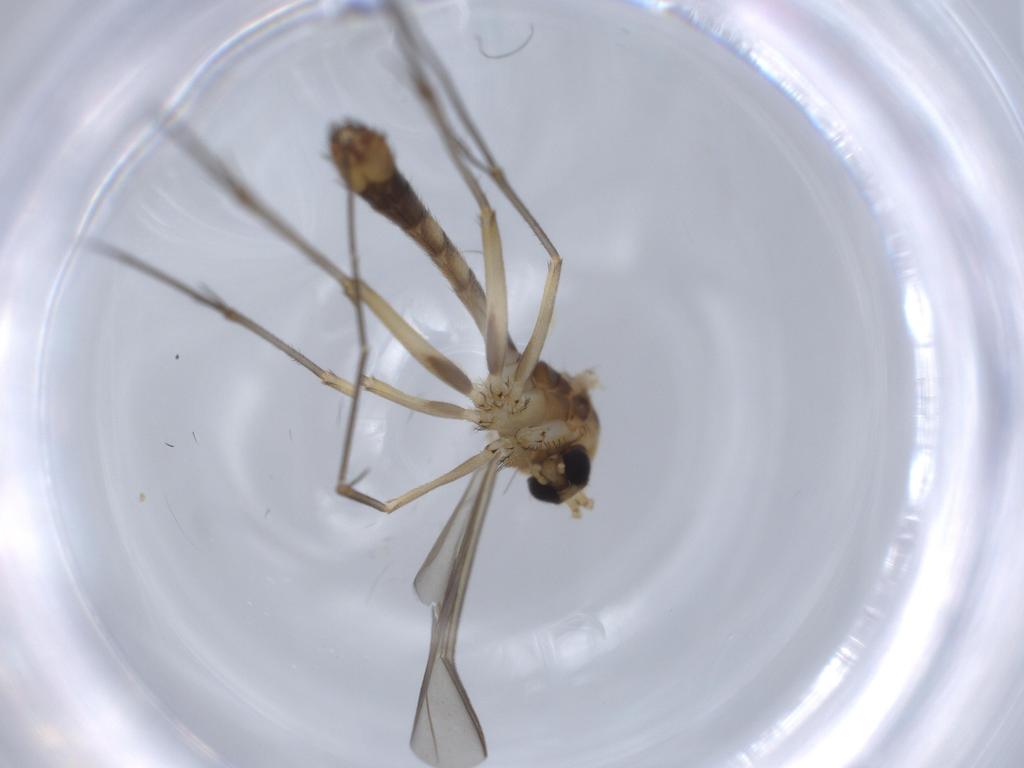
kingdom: Animalia
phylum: Arthropoda
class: Insecta
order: Diptera
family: Mycetophilidae
